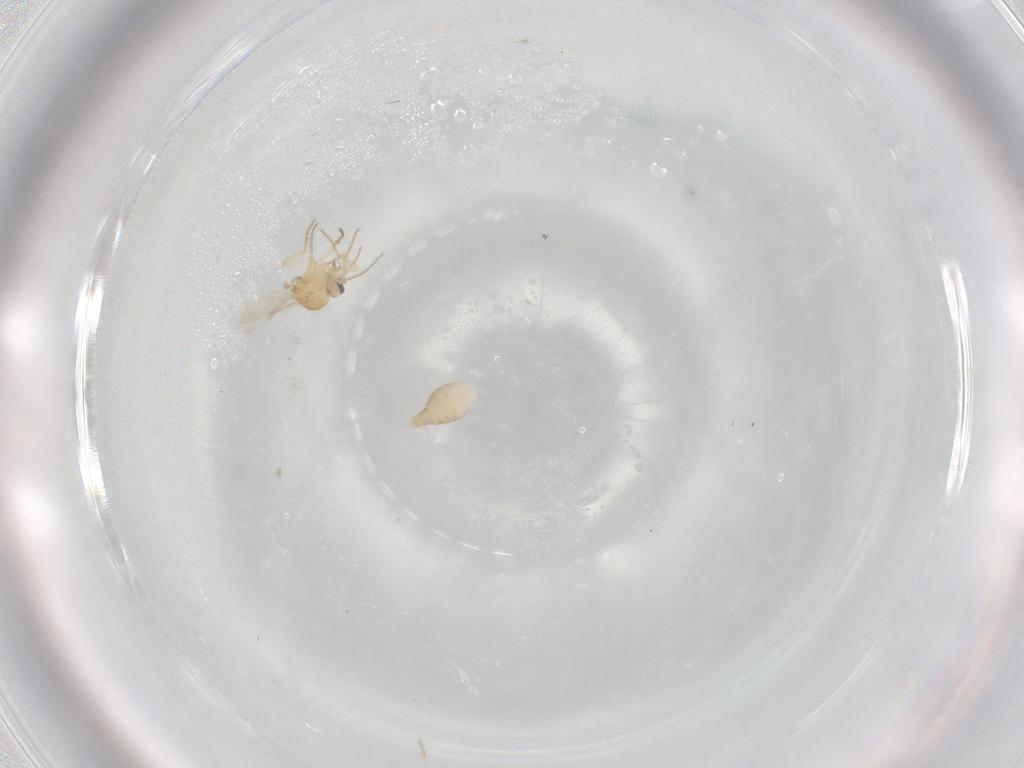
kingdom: Animalia
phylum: Arthropoda
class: Insecta
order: Diptera
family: Ceratopogonidae
